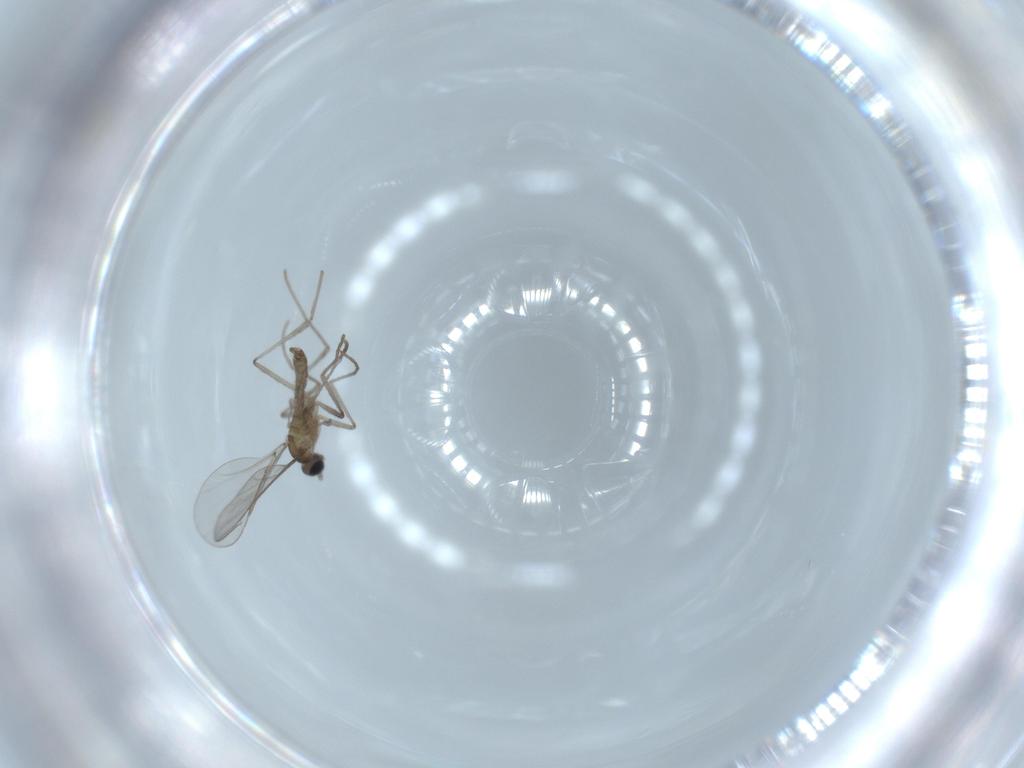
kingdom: Animalia
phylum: Arthropoda
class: Insecta
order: Diptera
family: Cecidomyiidae
